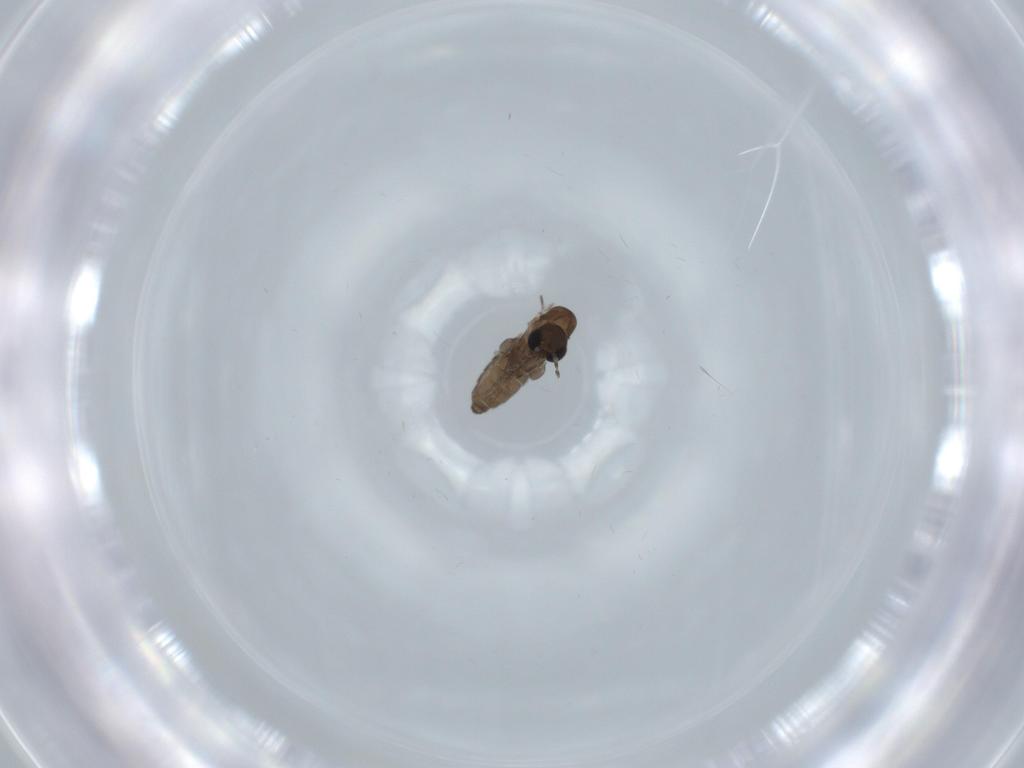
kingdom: Animalia
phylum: Arthropoda
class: Insecta
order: Diptera
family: Psychodidae
